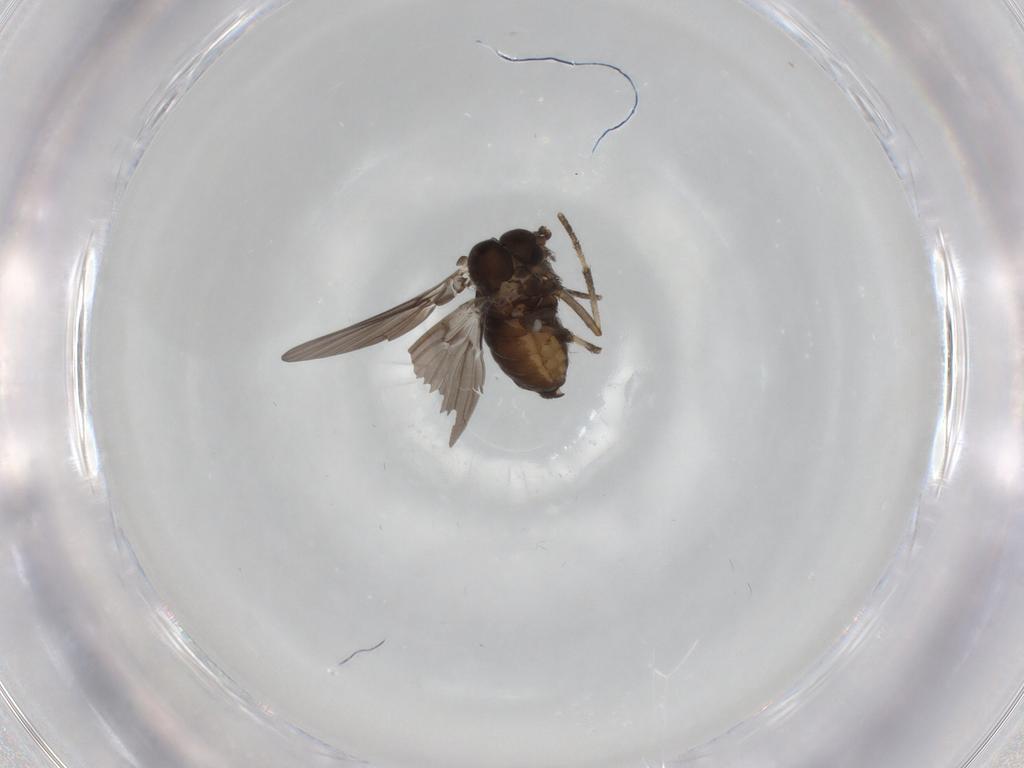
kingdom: Animalia
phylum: Arthropoda
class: Insecta
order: Diptera
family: Psychodidae
